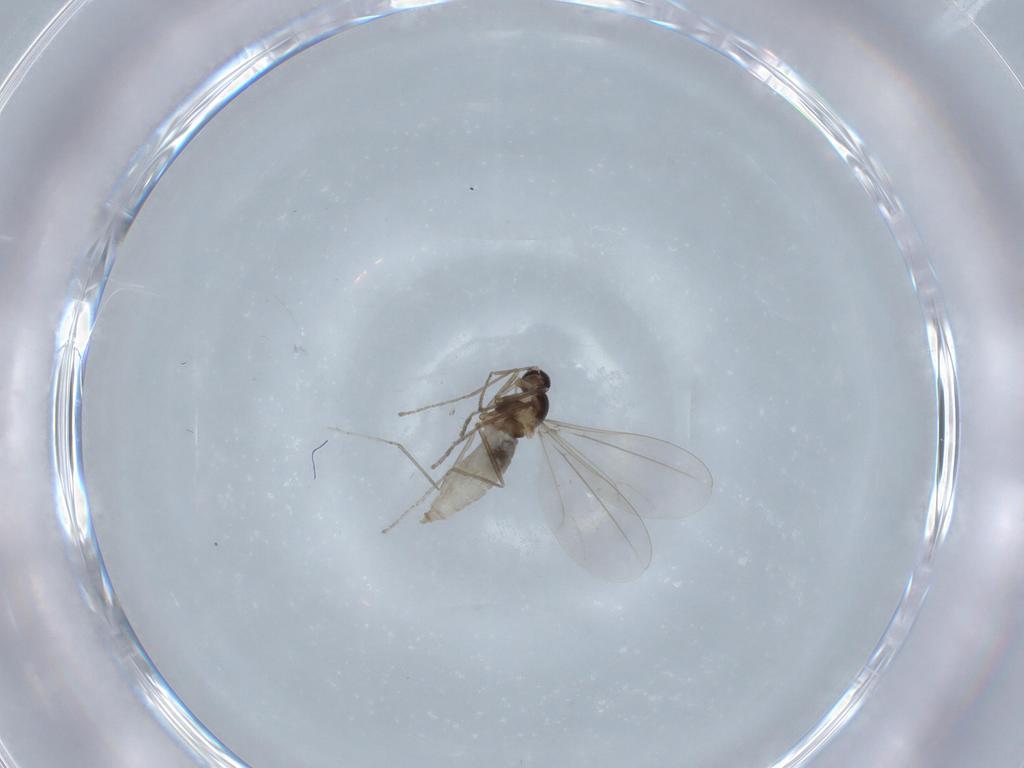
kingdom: Animalia
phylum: Arthropoda
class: Insecta
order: Diptera
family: Cecidomyiidae
